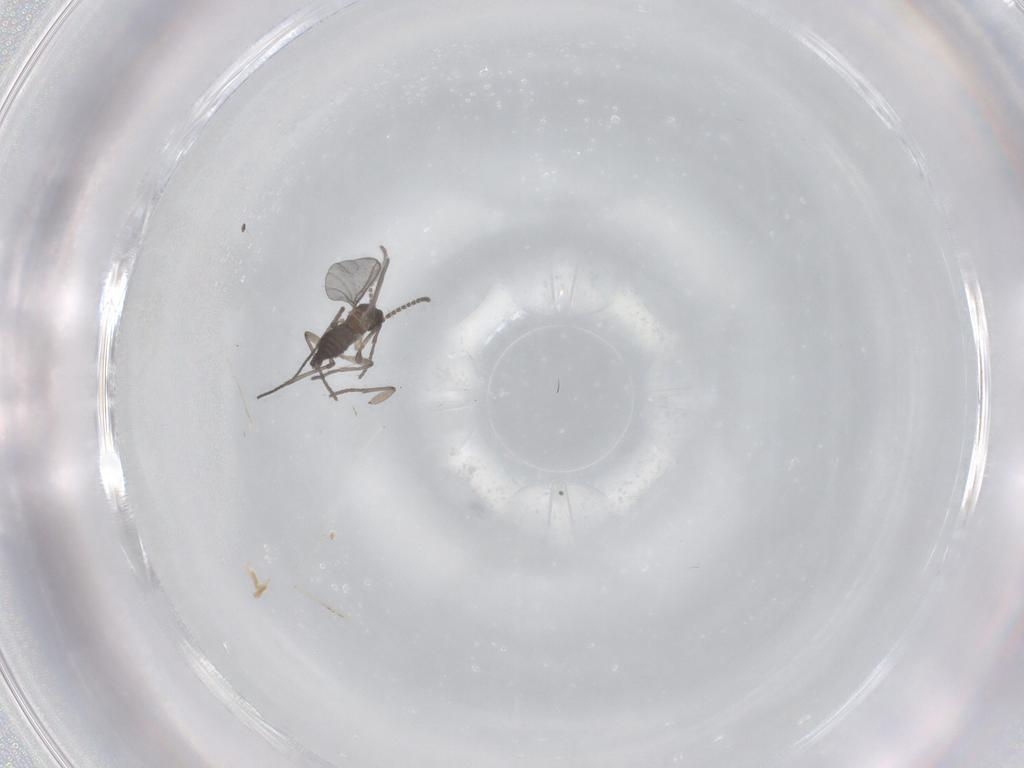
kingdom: Animalia
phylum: Arthropoda
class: Insecta
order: Diptera
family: Sciaridae
